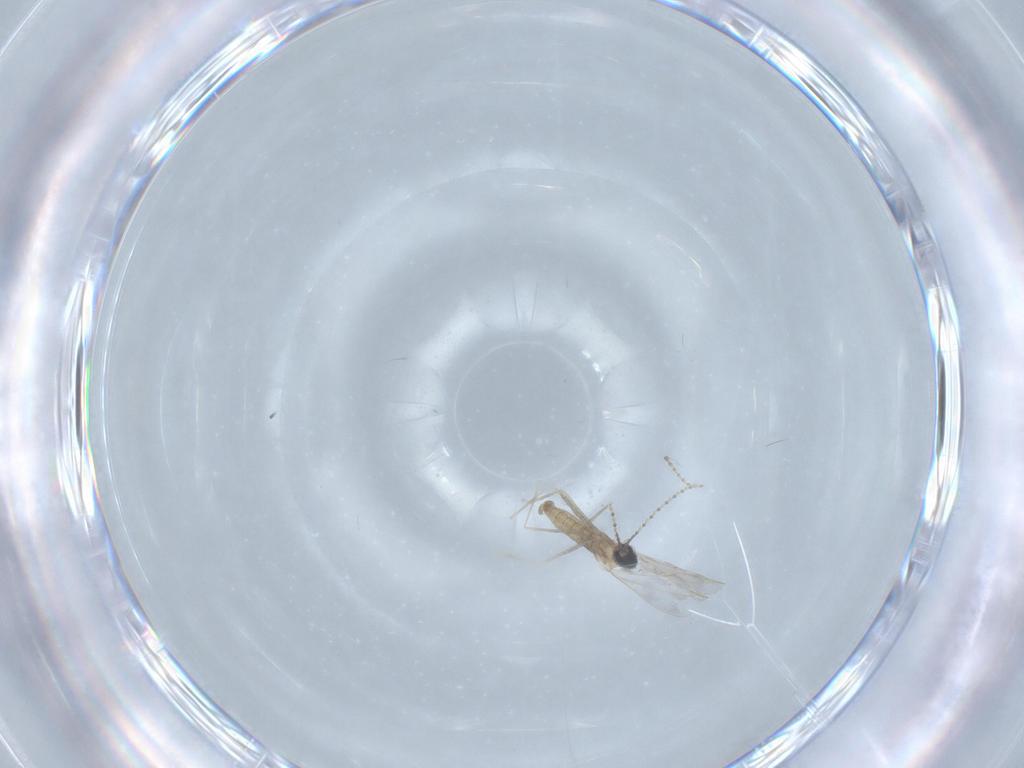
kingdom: Animalia
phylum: Arthropoda
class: Insecta
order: Diptera
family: Cecidomyiidae
